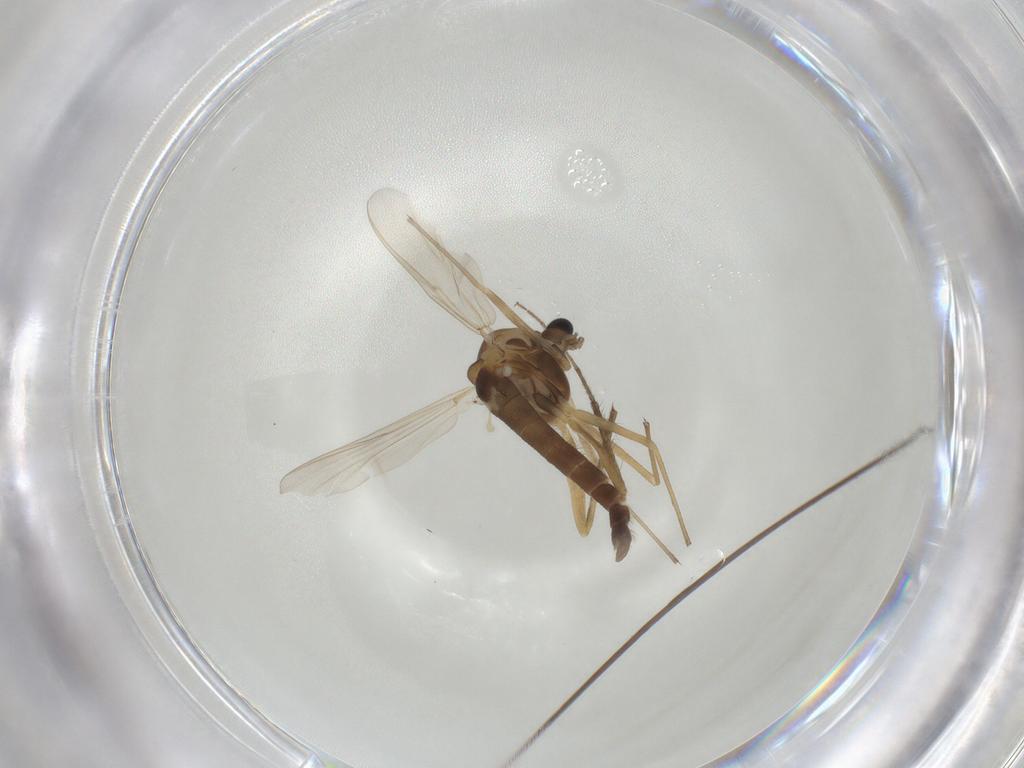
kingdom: Animalia
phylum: Arthropoda
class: Insecta
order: Diptera
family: Chironomidae
